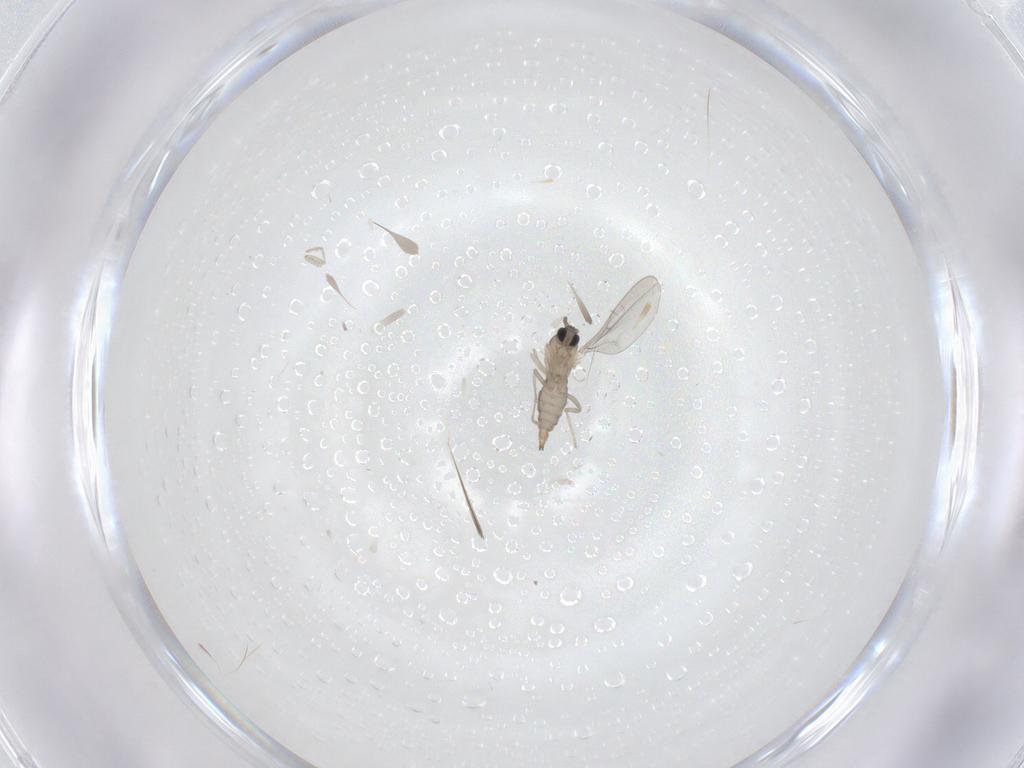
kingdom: Animalia
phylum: Arthropoda
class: Insecta
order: Diptera
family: Cecidomyiidae
